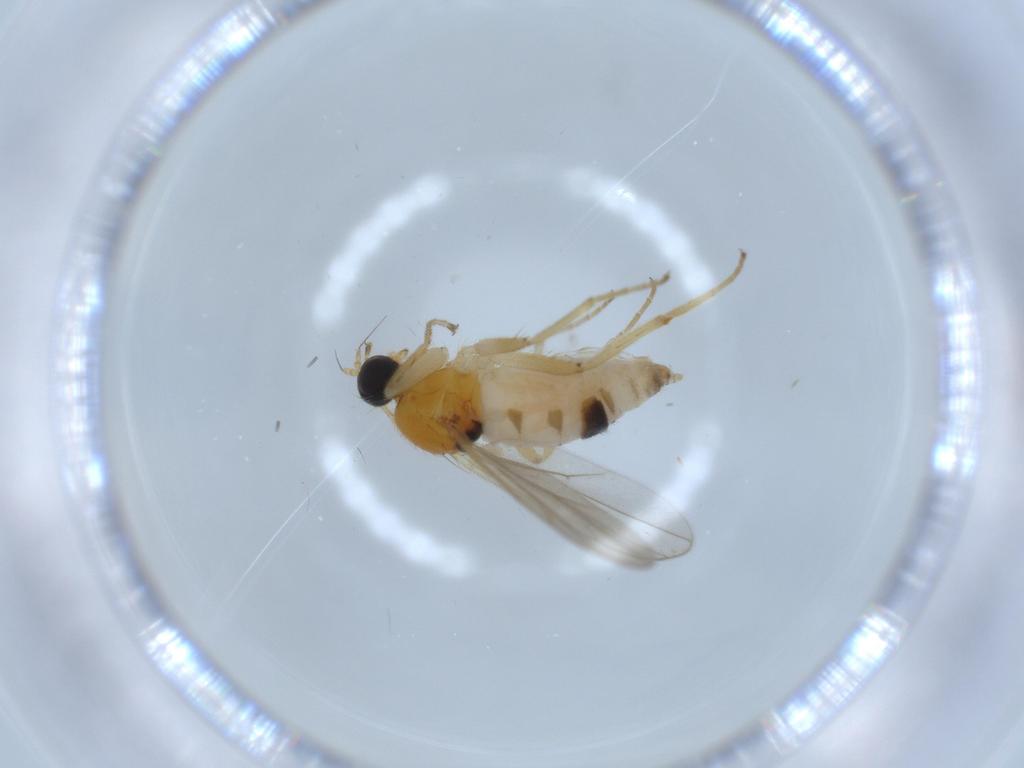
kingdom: Animalia
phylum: Arthropoda
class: Insecta
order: Diptera
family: Hybotidae
